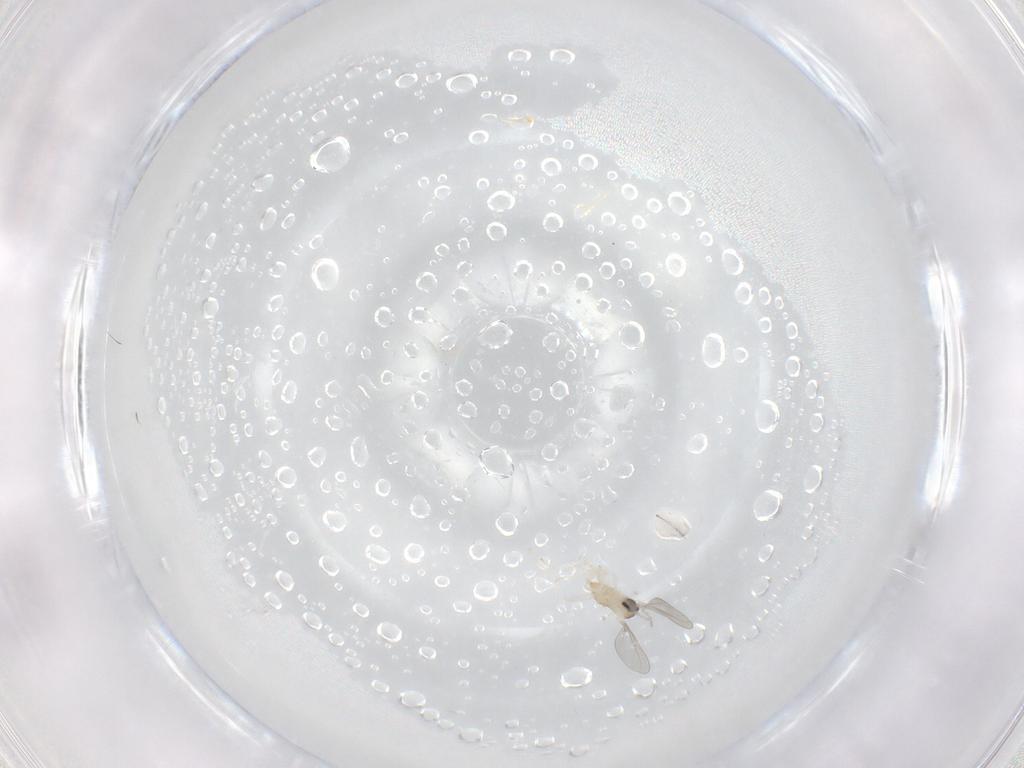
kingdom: Animalia
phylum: Arthropoda
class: Insecta
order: Diptera
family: Cecidomyiidae
